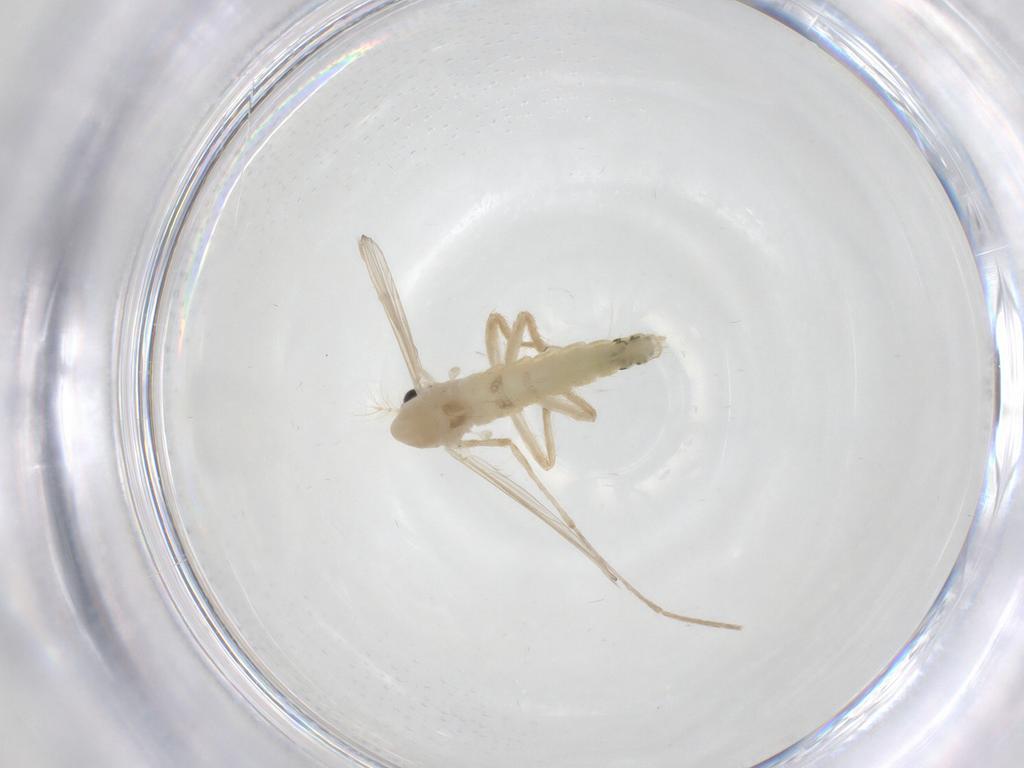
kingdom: Animalia
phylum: Arthropoda
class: Insecta
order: Diptera
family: Chironomidae
